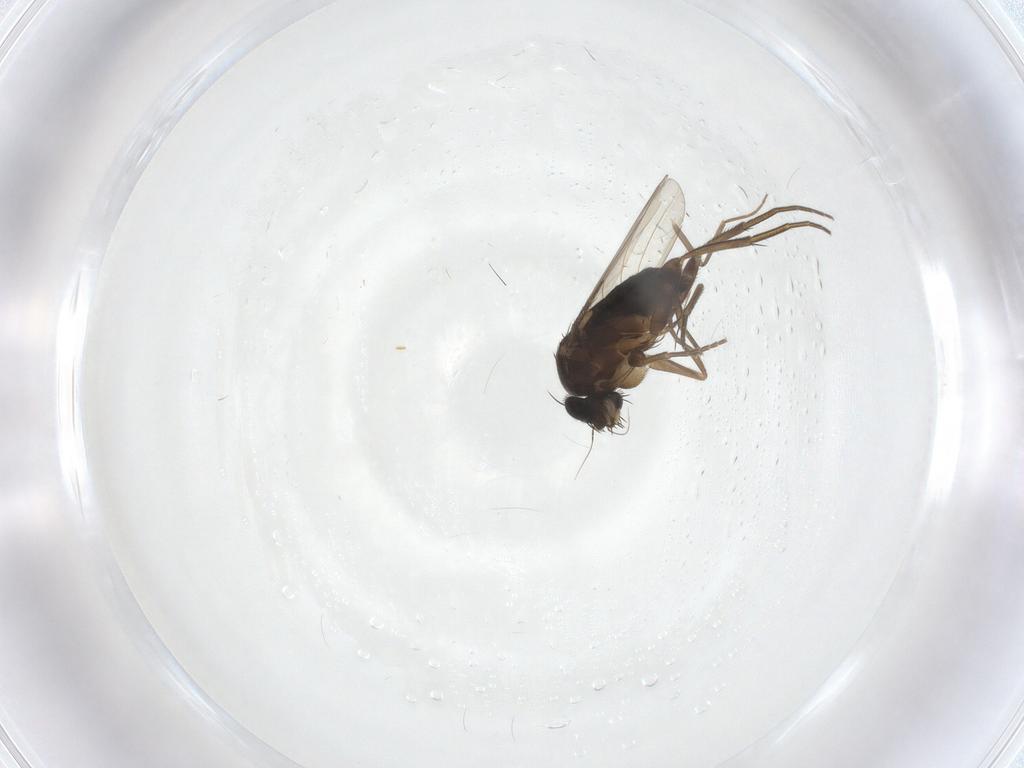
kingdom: Animalia
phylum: Arthropoda
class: Insecta
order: Diptera
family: Phoridae
